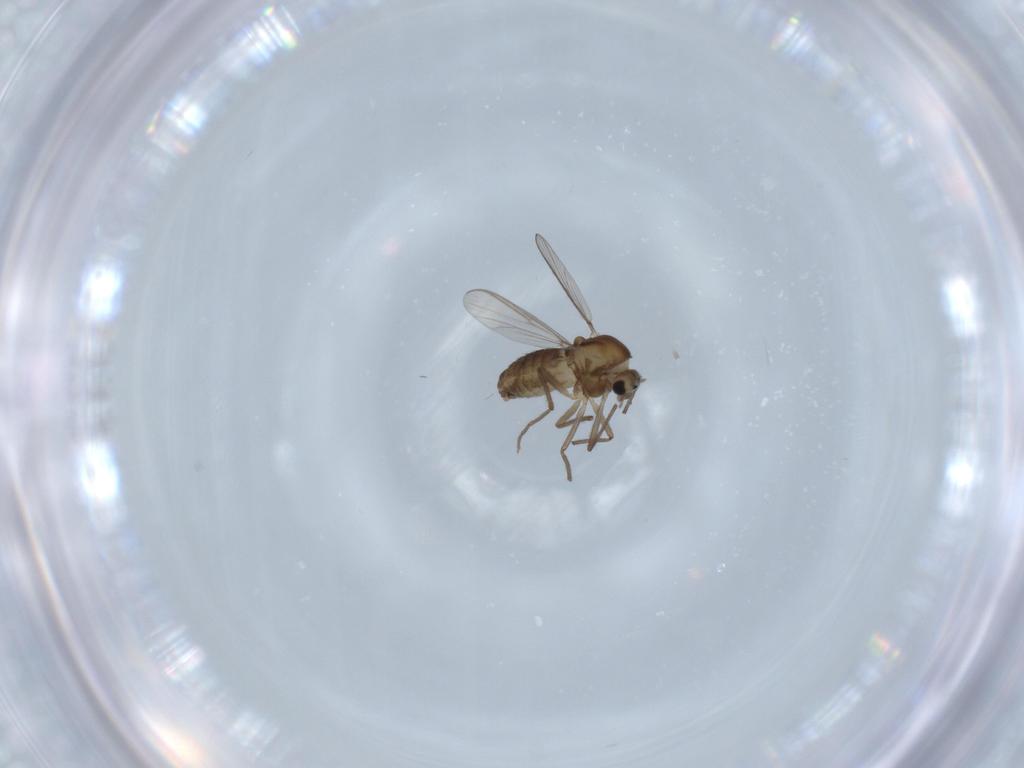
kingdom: Animalia
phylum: Arthropoda
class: Insecta
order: Diptera
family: Chironomidae
